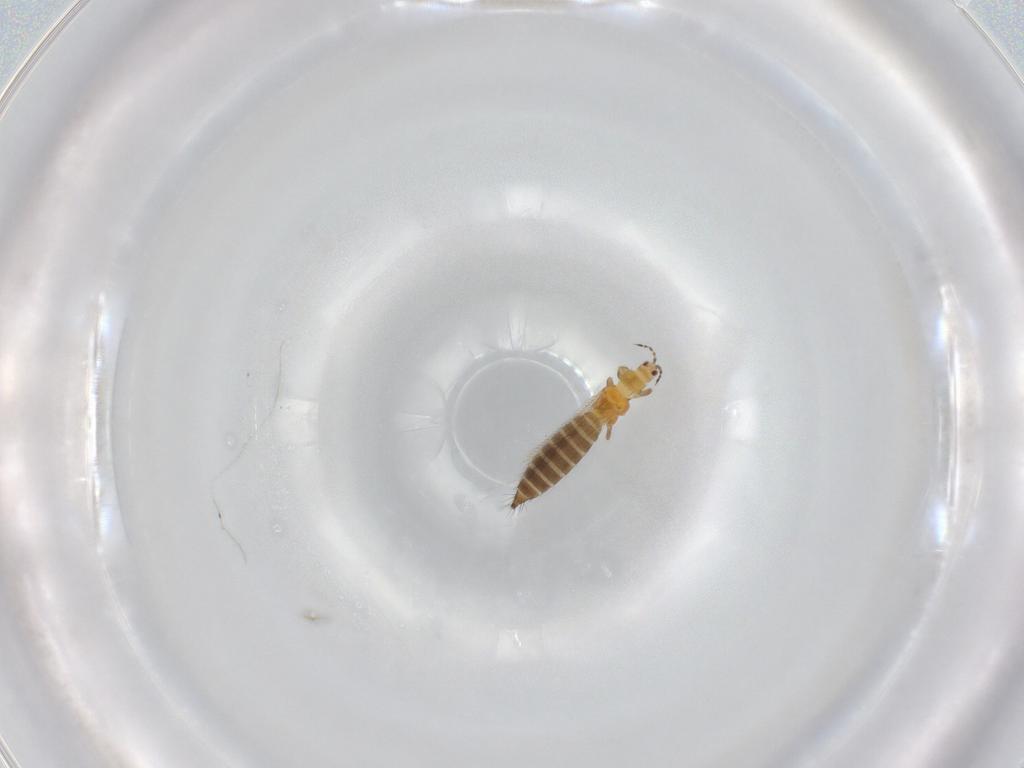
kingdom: Animalia
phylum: Arthropoda
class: Insecta
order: Thysanoptera
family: Thripidae
